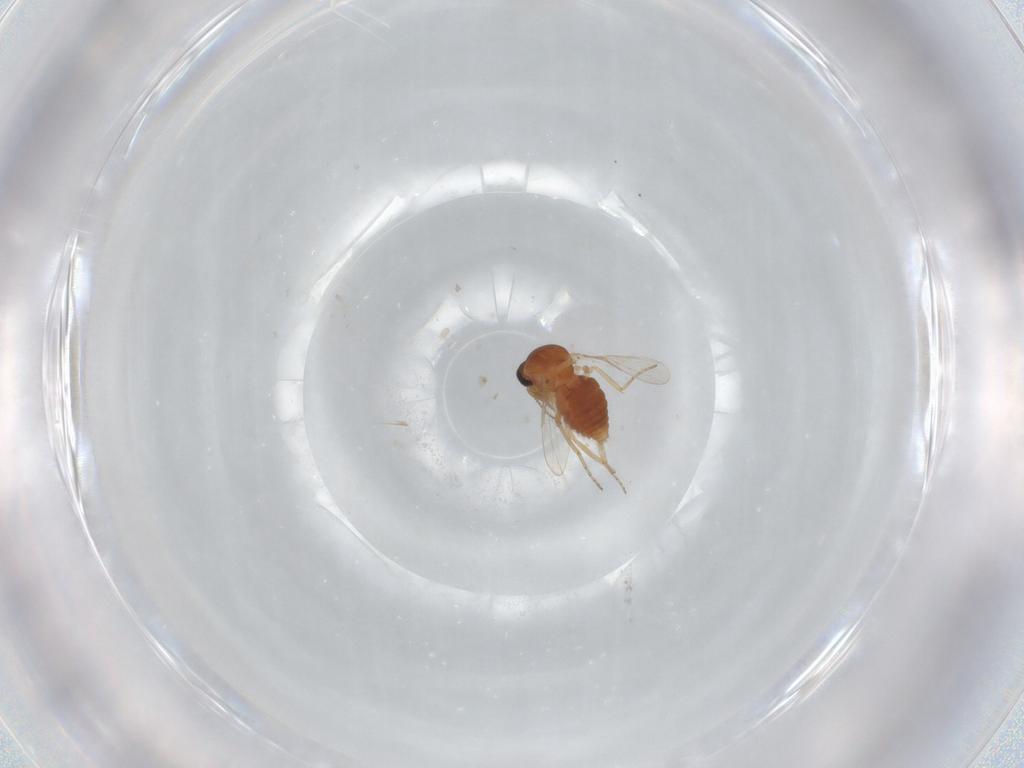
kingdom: Animalia
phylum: Arthropoda
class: Insecta
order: Diptera
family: Ceratopogonidae
